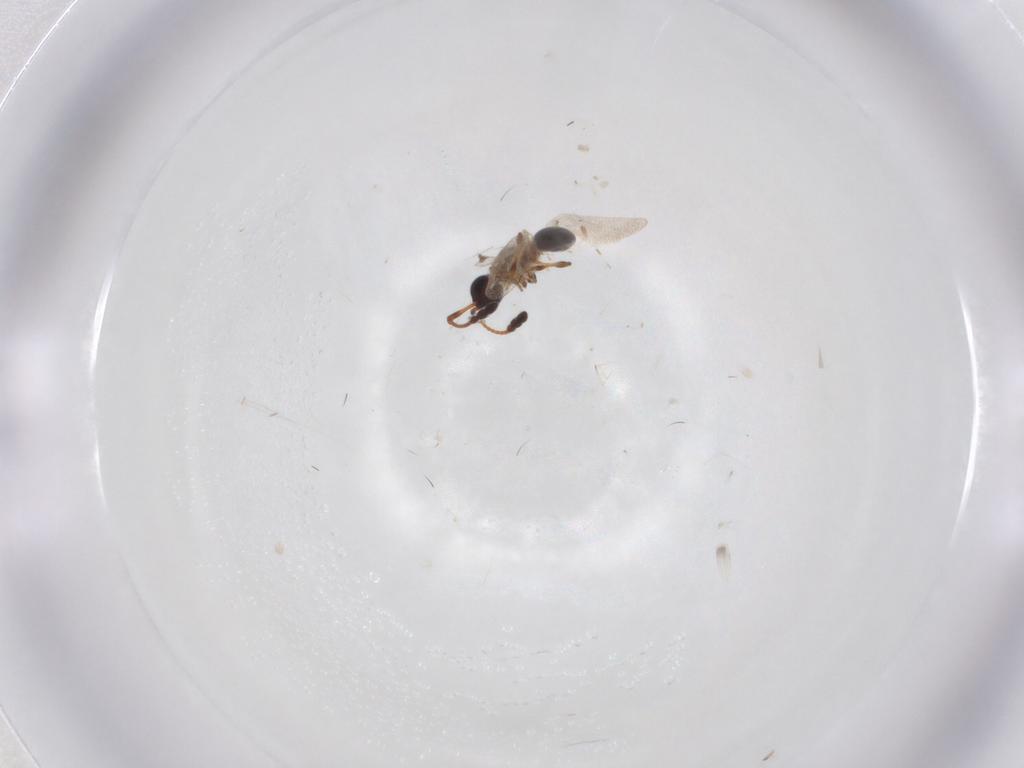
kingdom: Animalia
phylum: Arthropoda
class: Insecta
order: Hymenoptera
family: Diapriidae
